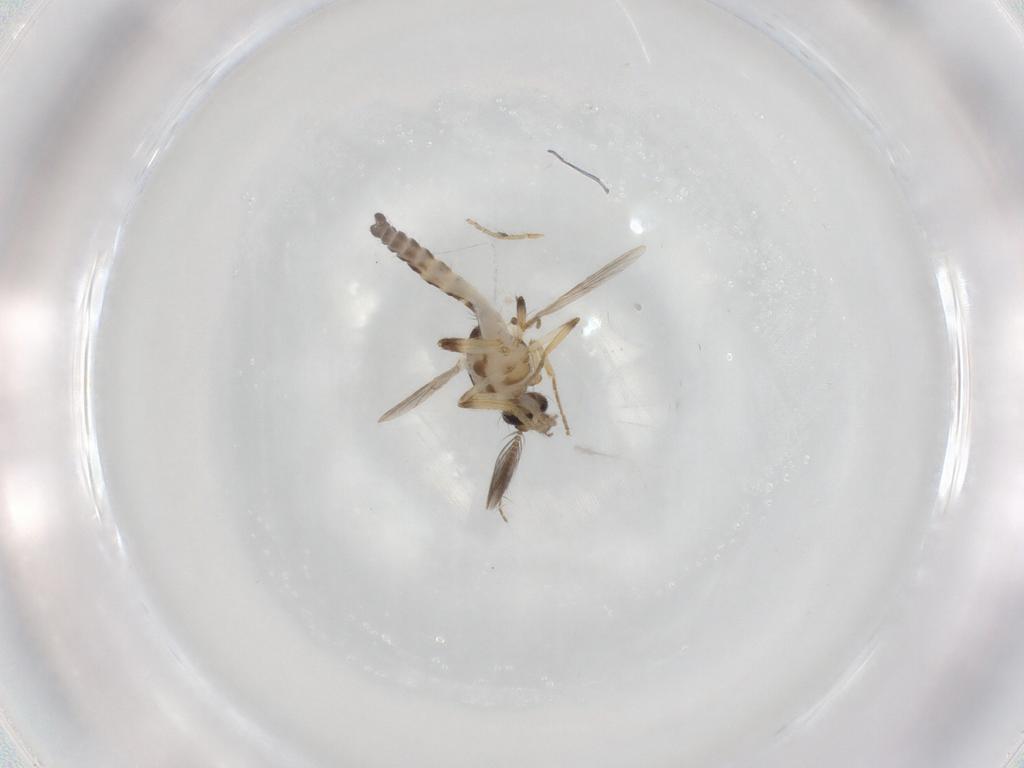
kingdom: Animalia
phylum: Arthropoda
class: Insecta
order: Diptera
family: Ceratopogonidae
